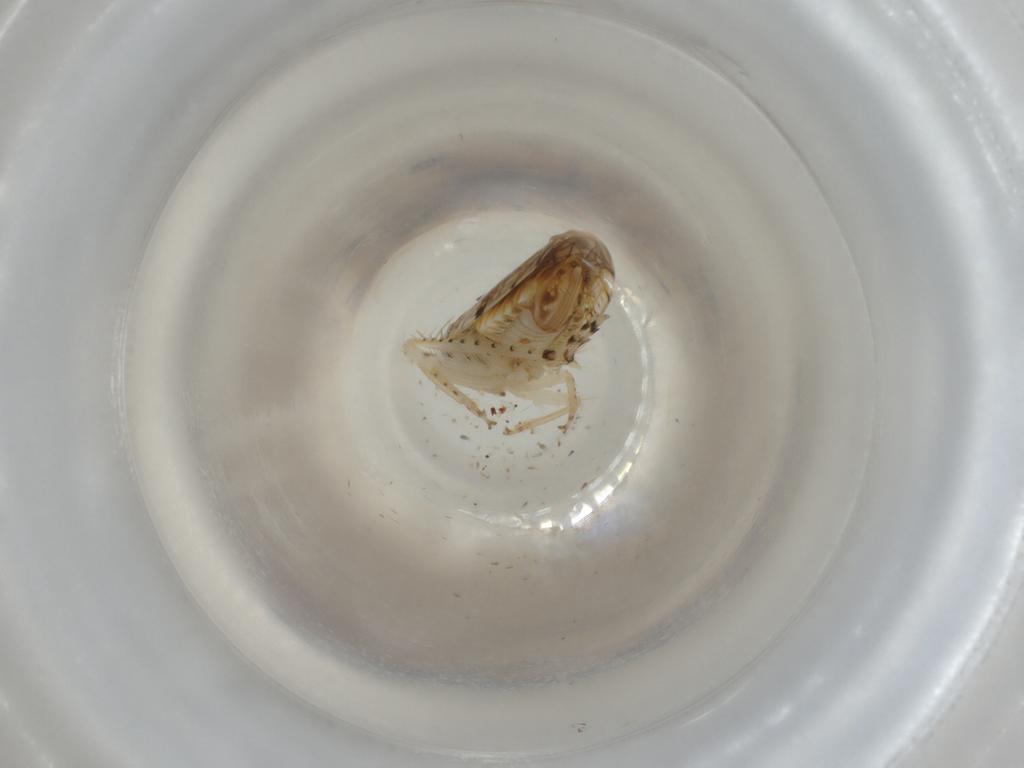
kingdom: Animalia
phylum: Arthropoda
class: Insecta
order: Hemiptera
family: Cicadellidae
